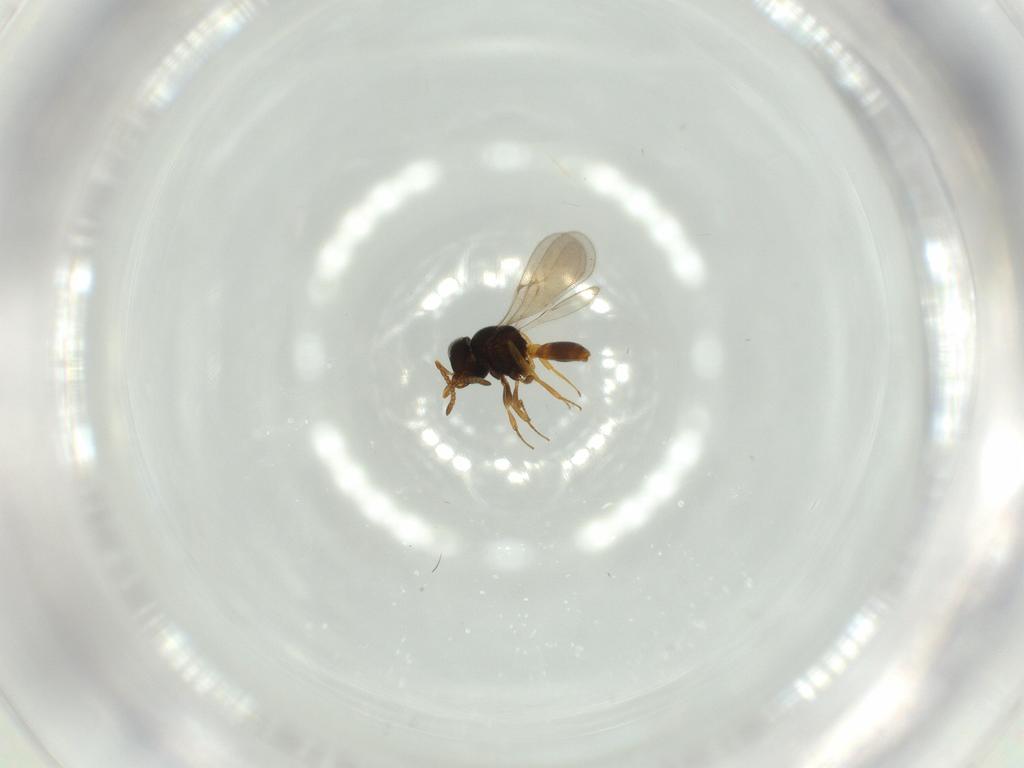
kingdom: Animalia
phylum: Arthropoda
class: Insecta
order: Hymenoptera
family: Scelionidae
